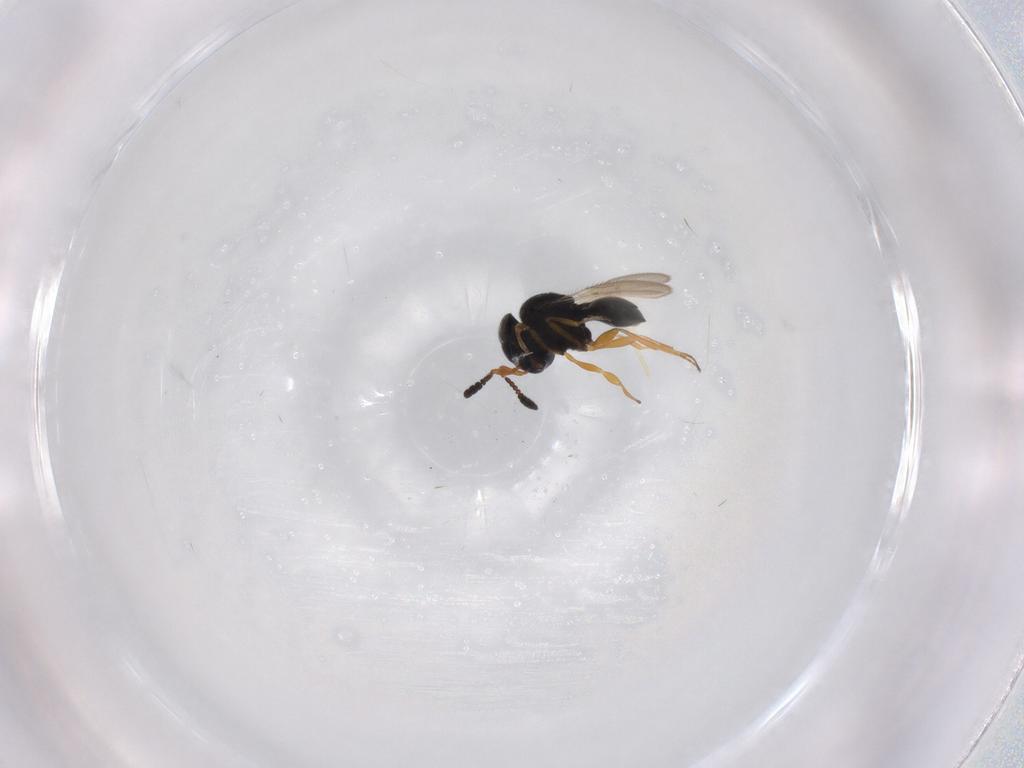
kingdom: Animalia
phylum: Arthropoda
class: Insecta
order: Hymenoptera
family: Scelionidae
